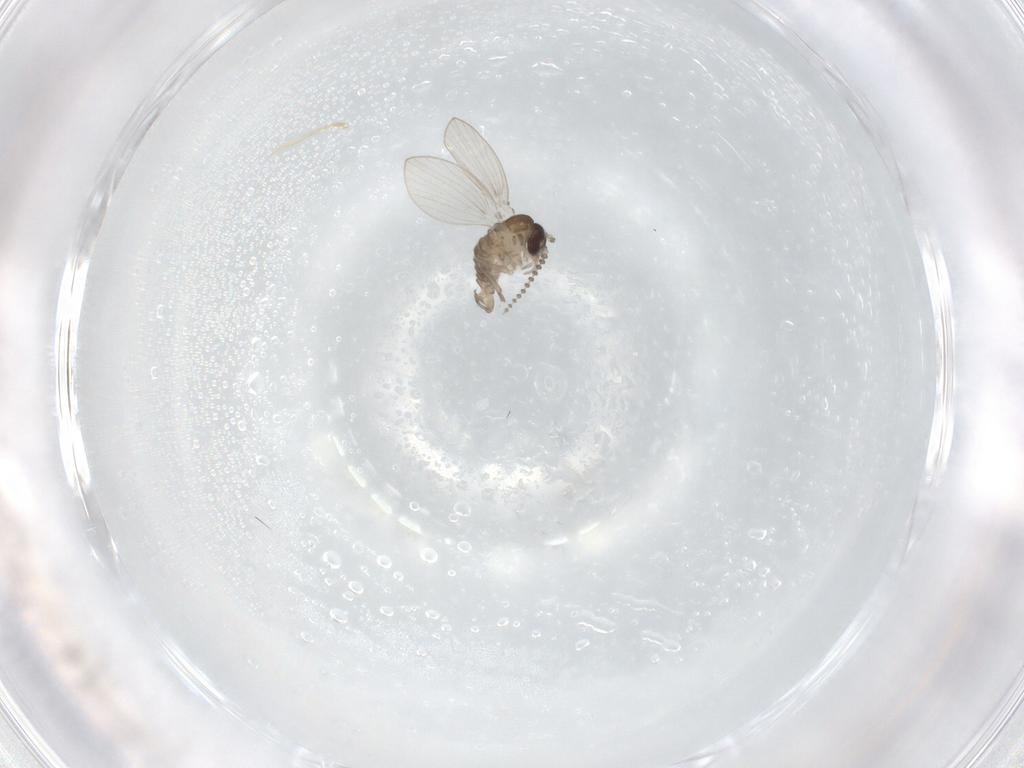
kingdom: Animalia
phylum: Arthropoda
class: Insecta
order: Diptera
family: Psychodidae
